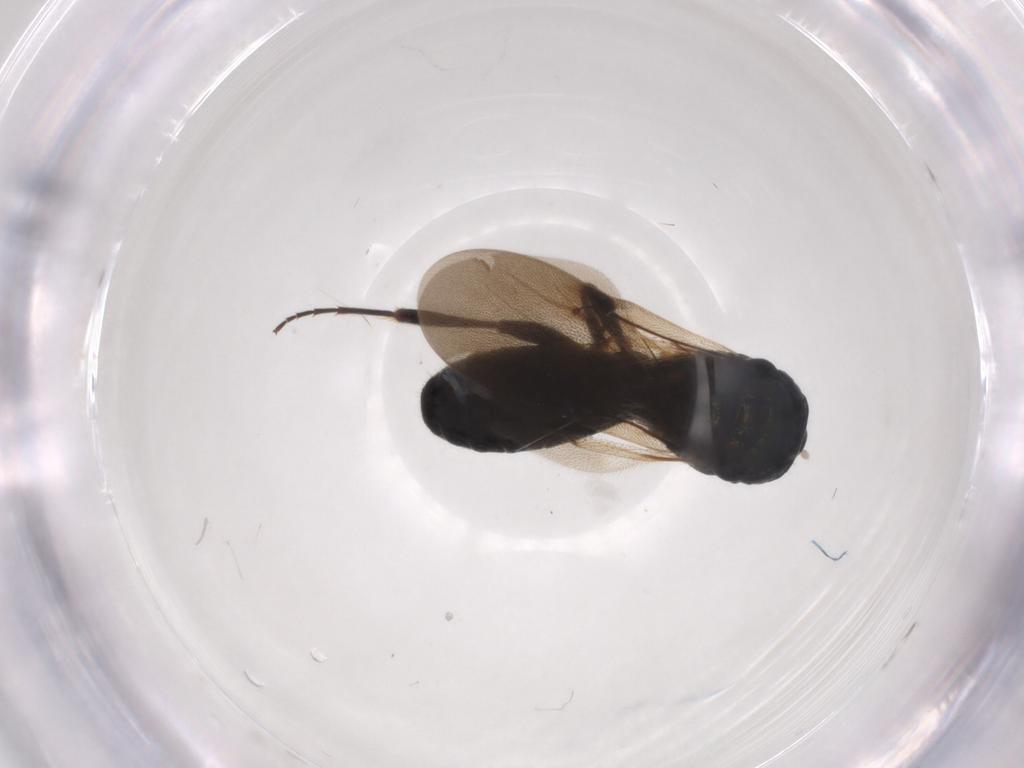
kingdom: Animalia
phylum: Arthropoda
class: Insecta
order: Hymenoptera
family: Sparasionidae
